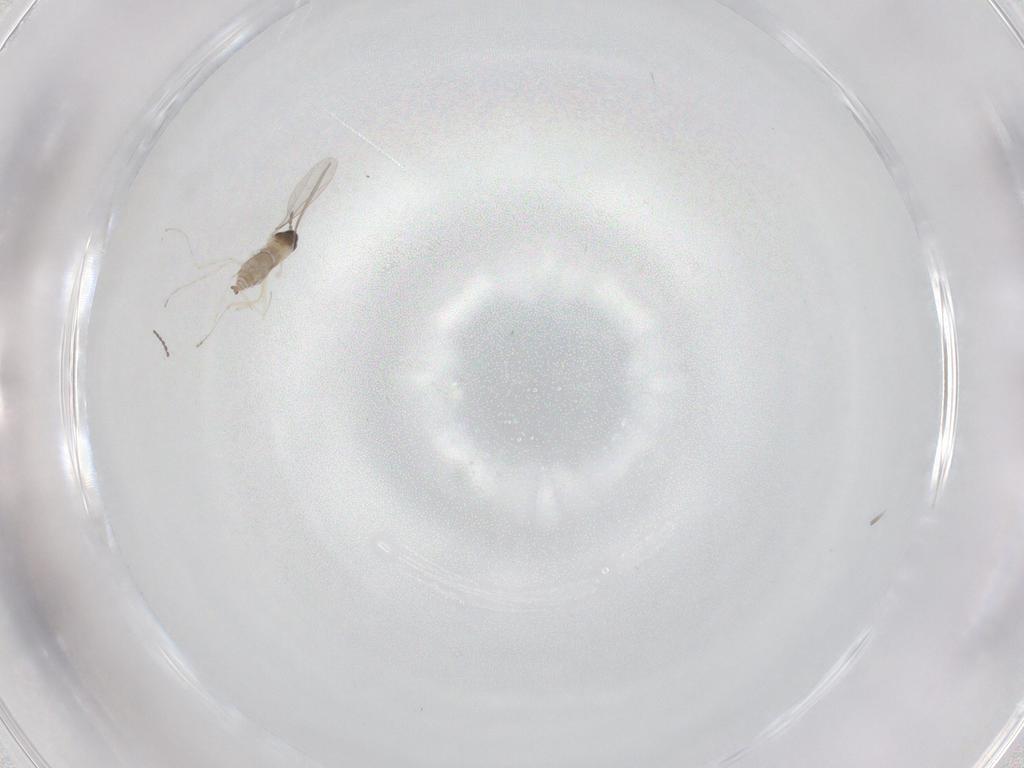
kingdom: Animalia
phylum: Arthropoda
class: Insecta
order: Diptera
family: Cecidomyiidae
